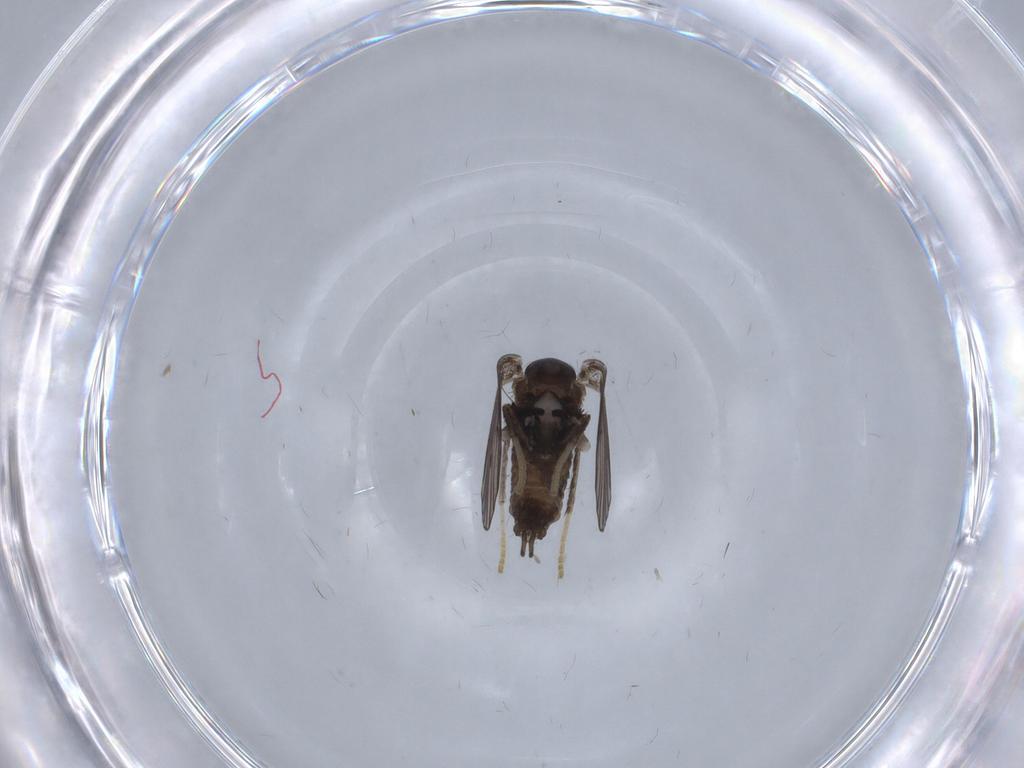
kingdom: Animalia
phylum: Arthropoda
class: Insecta
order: Diptera
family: Psychodidae
